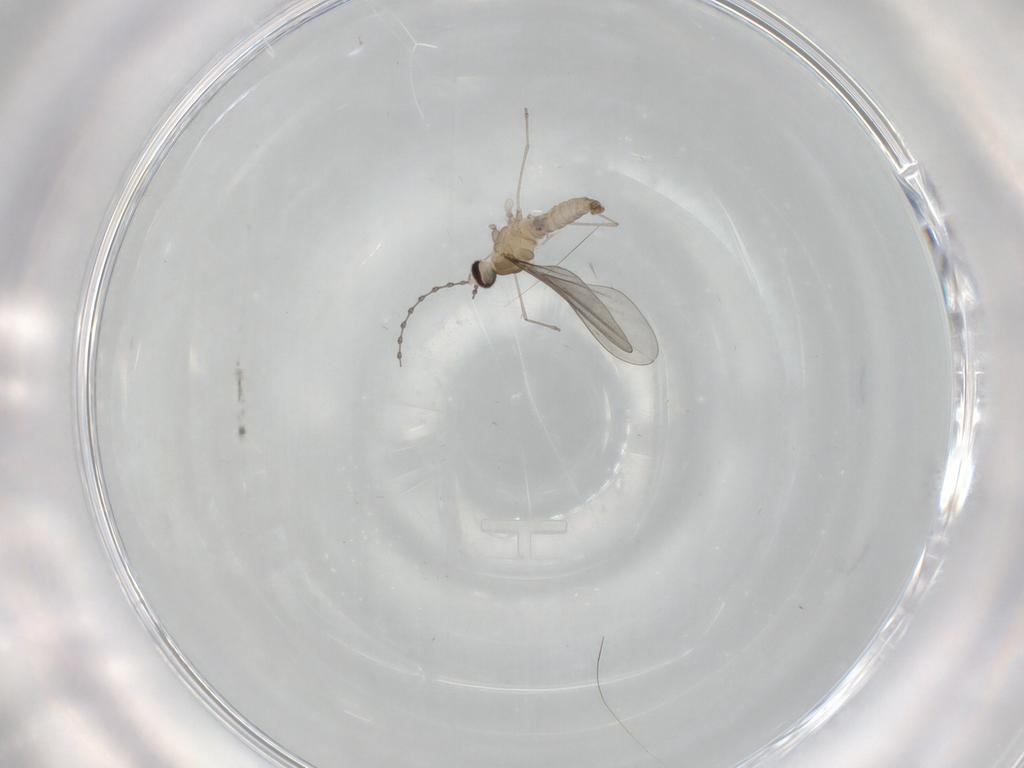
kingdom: Animalia
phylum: Arthropoda
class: Insecta
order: Diptera
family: Cecidomyiidae
